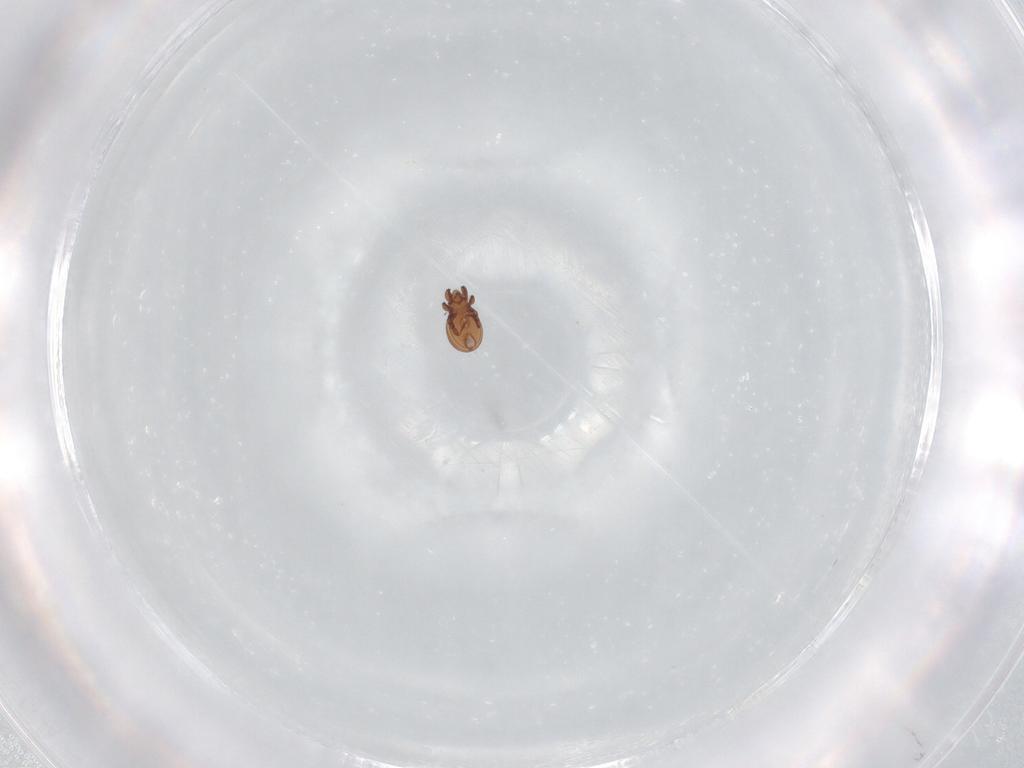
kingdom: Animalia
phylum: Arthropoda
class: Arachnida
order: Sarcoptiformes
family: Eremaeidae
